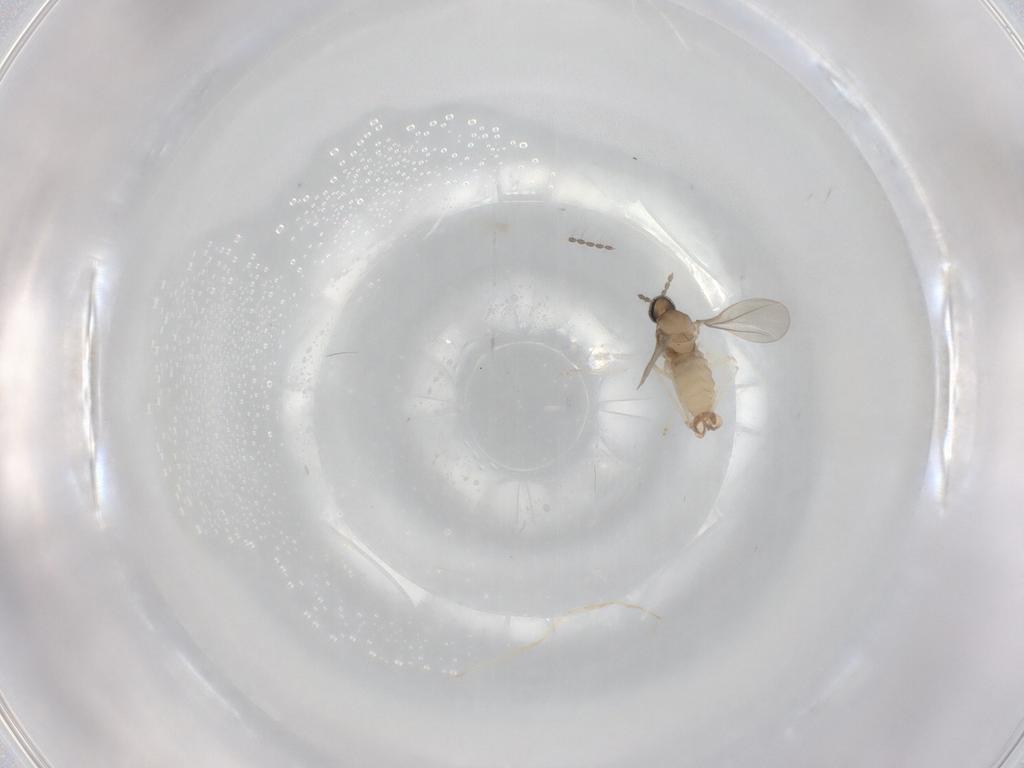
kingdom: Animalia
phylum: Arthropoda
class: Insecta
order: Diptera
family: Cecidomyiidae
